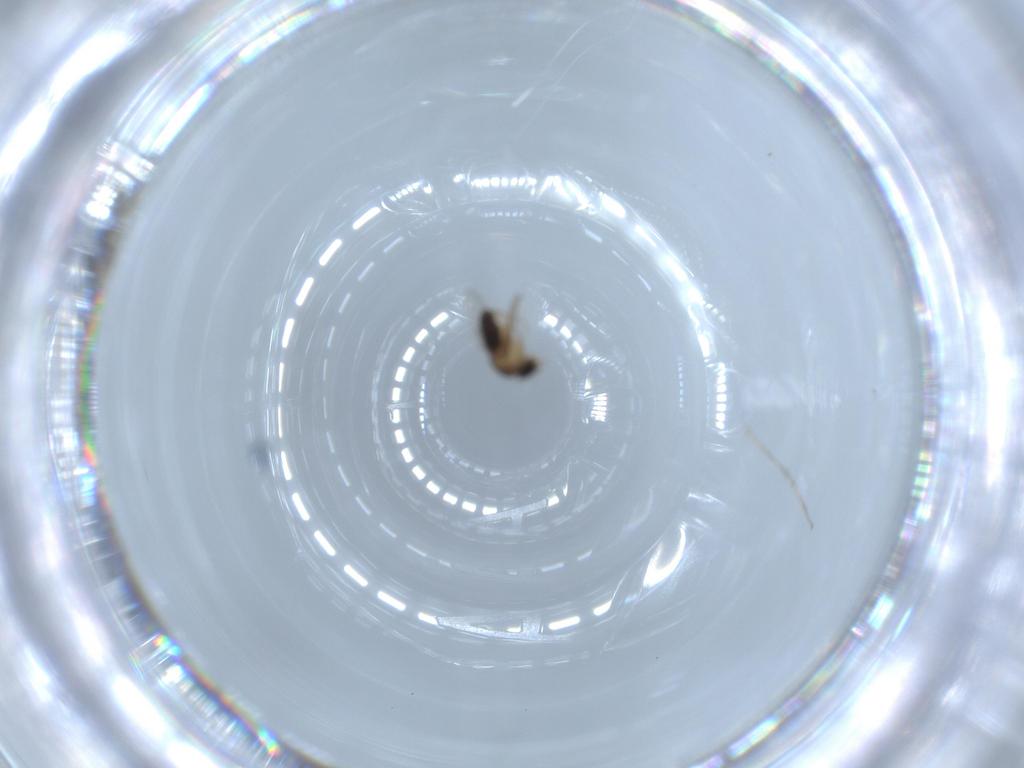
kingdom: Animalia
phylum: Arthropoda
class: Insecta
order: Diptera
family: Phoridae
